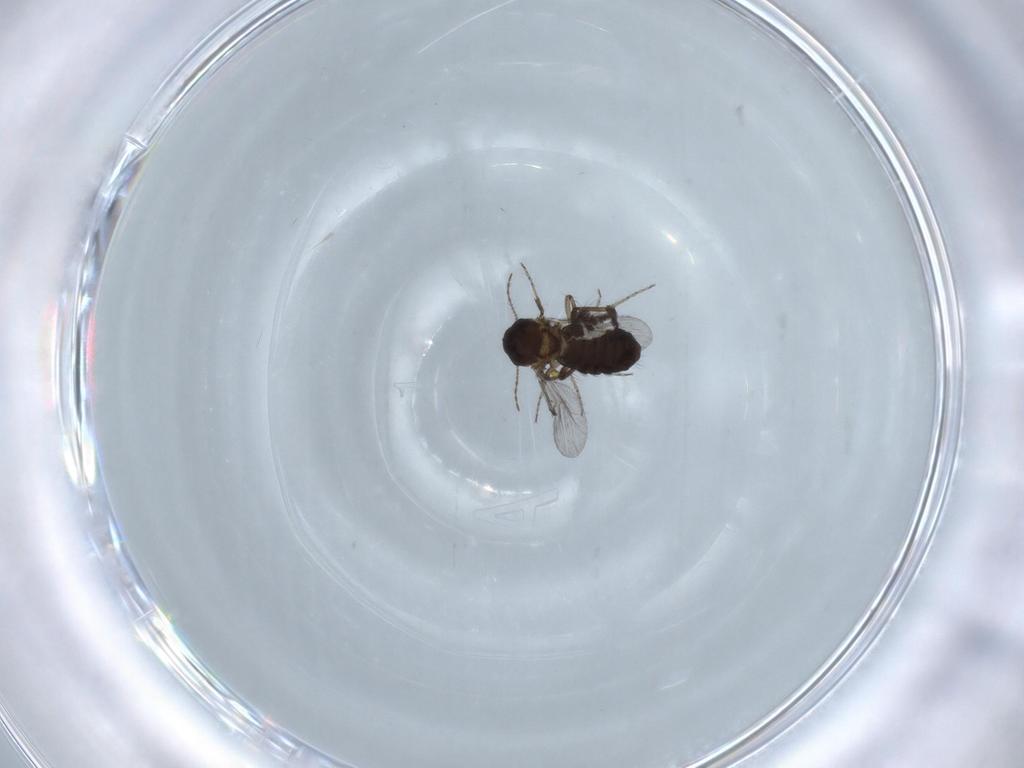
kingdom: Animalia
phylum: Arthropoda
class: Insecta
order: Diptera
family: Ceratopogonidae
